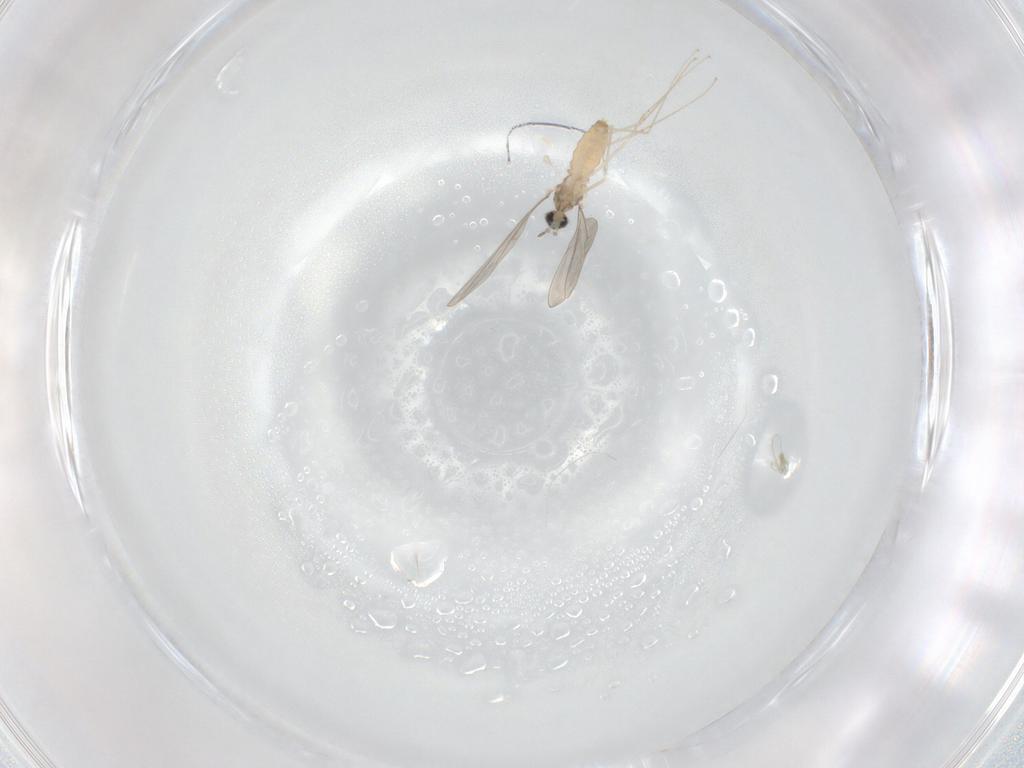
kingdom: Animalia
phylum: Arthropoda
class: Insecta
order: Diptera
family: Cecidomyiidae
